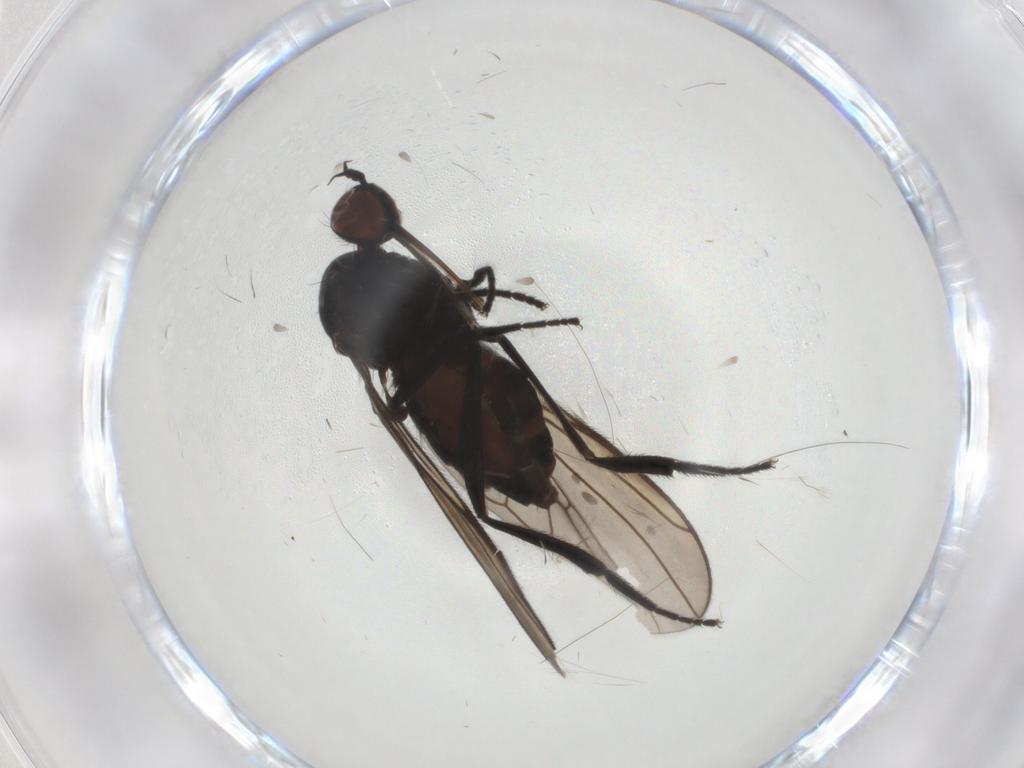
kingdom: Animalia
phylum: Arthropoda
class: Insecta
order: Diptera
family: Empididae
